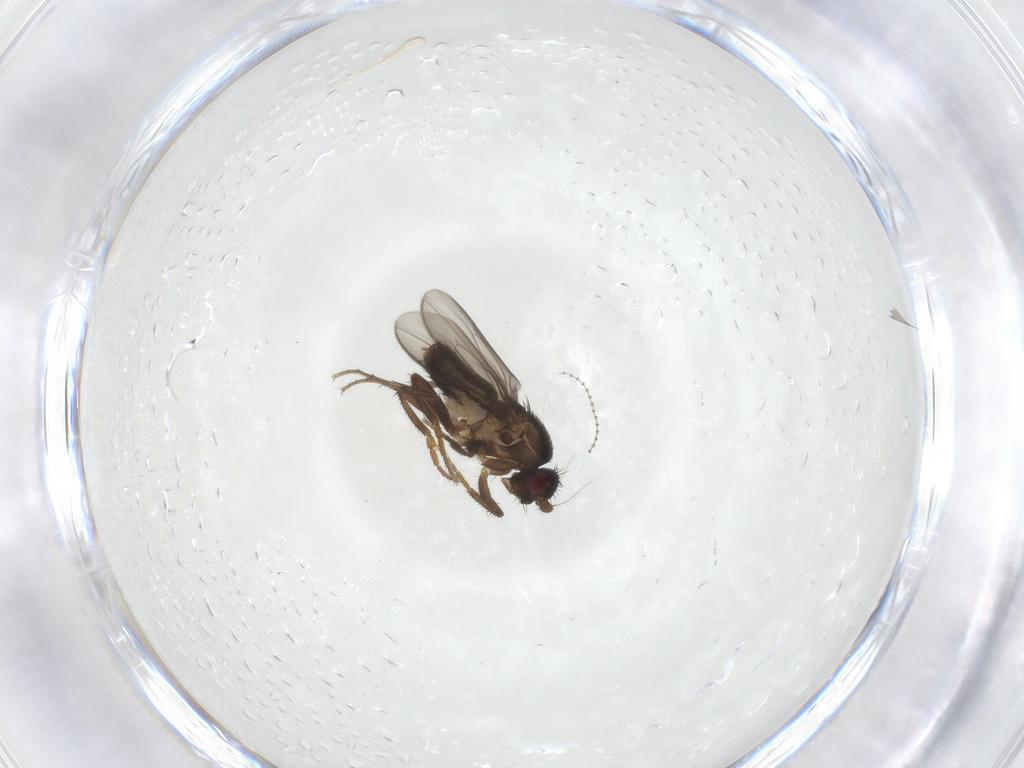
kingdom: Animalia
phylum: Arthropoda
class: Insecta
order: Diptera
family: Sphaeroceridae
